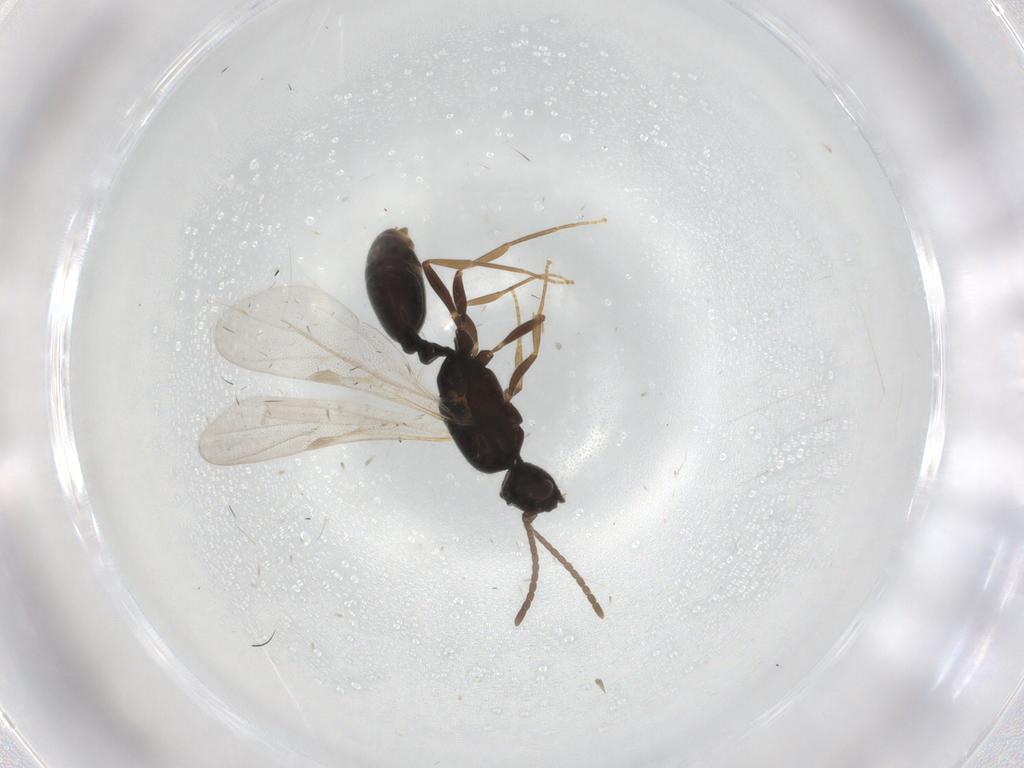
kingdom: Animalia
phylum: Arthropoda
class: Insecta
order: Hymenoptera
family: Formicidae
